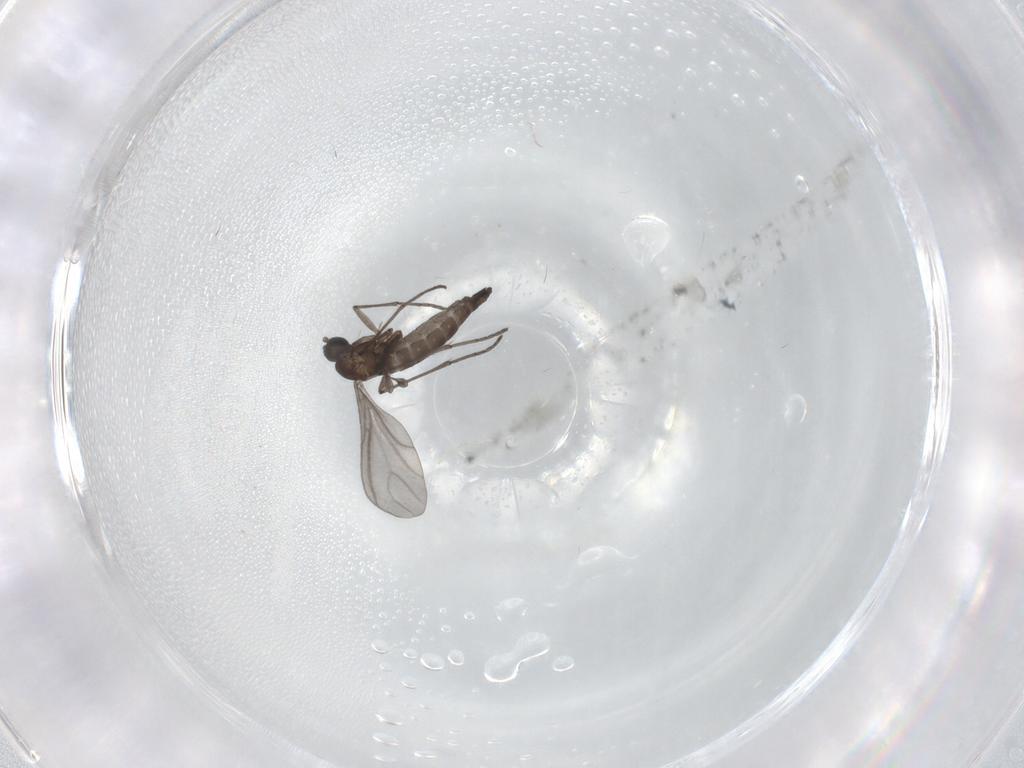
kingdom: Animalia
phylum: Arthropoda
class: Insecta
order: Diptera
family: Sciaridae
